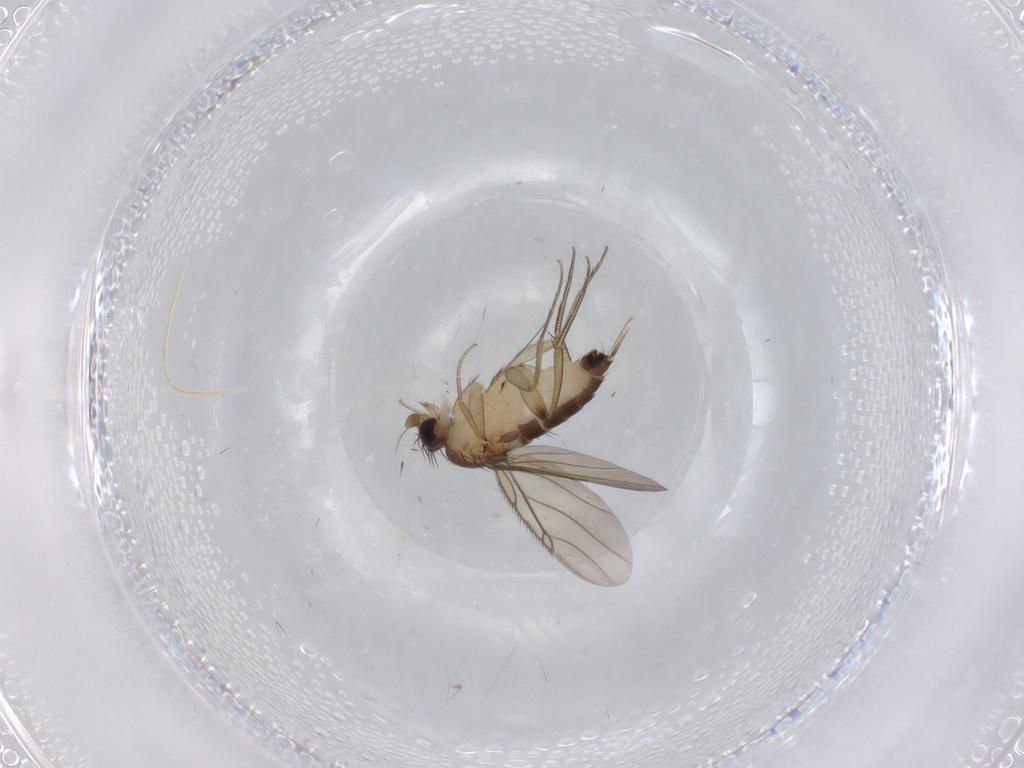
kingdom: Animalia
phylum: Arthropoda
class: Insecta
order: Diptera
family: Phoridae
